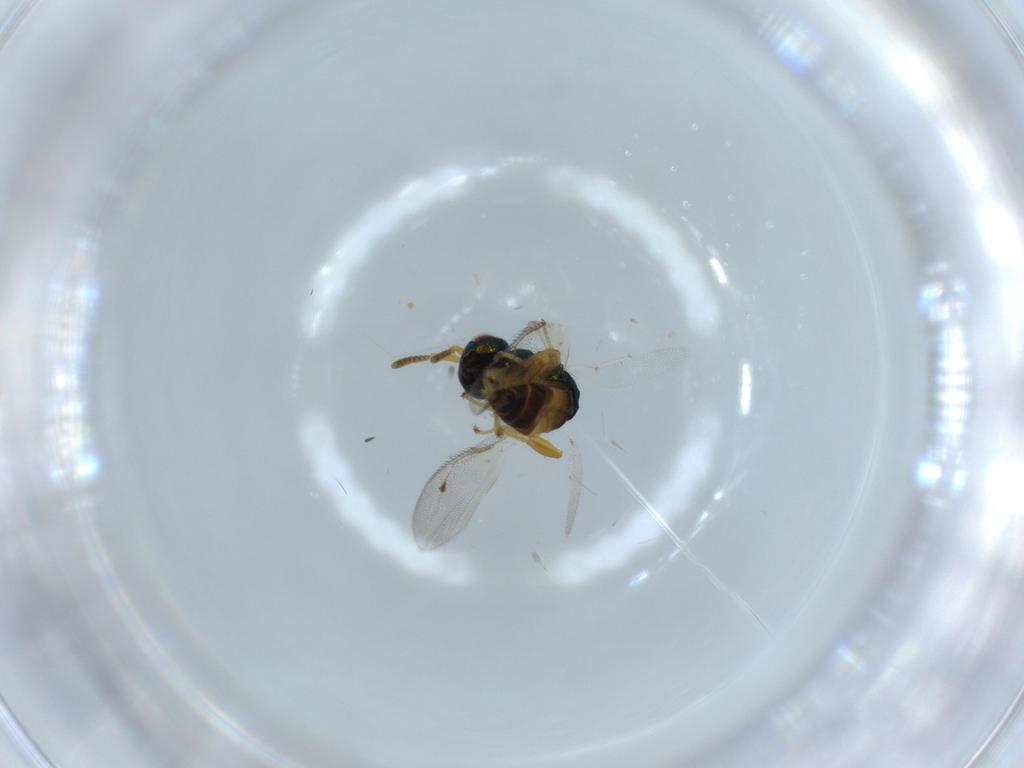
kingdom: Animalia
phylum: Arthropoda
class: Insecta
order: Hymenoptera
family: Pteromalidae
